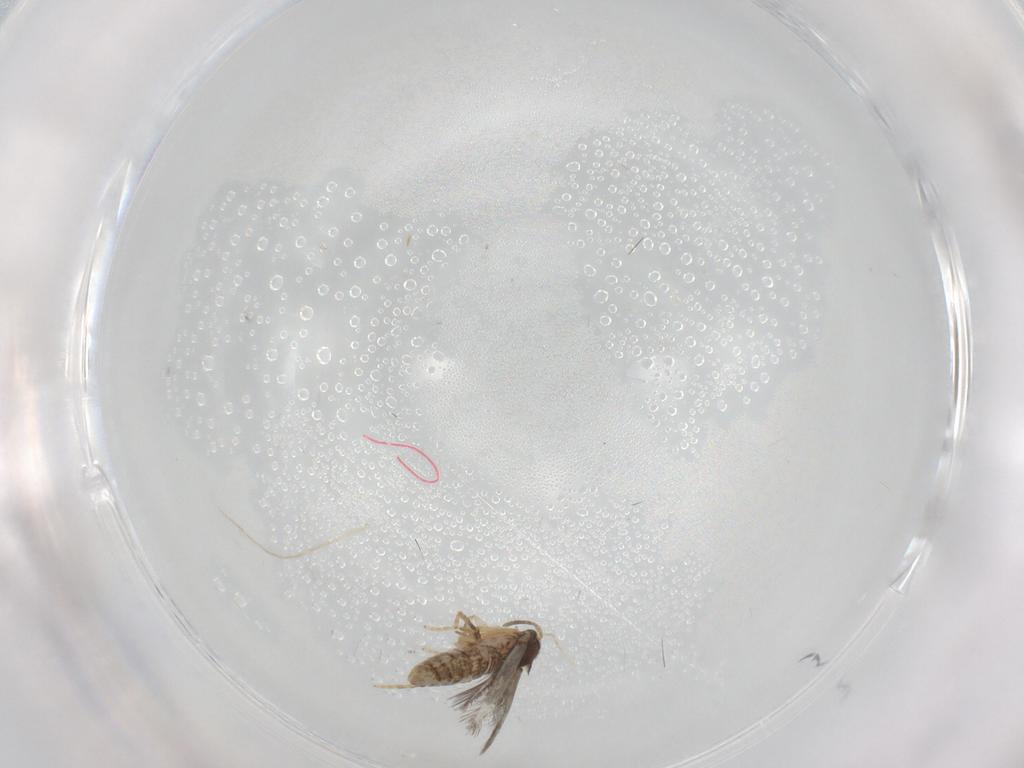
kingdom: Animalia
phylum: Arthropoda
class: Insecta
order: Lepidoptera
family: Nepticulidae
